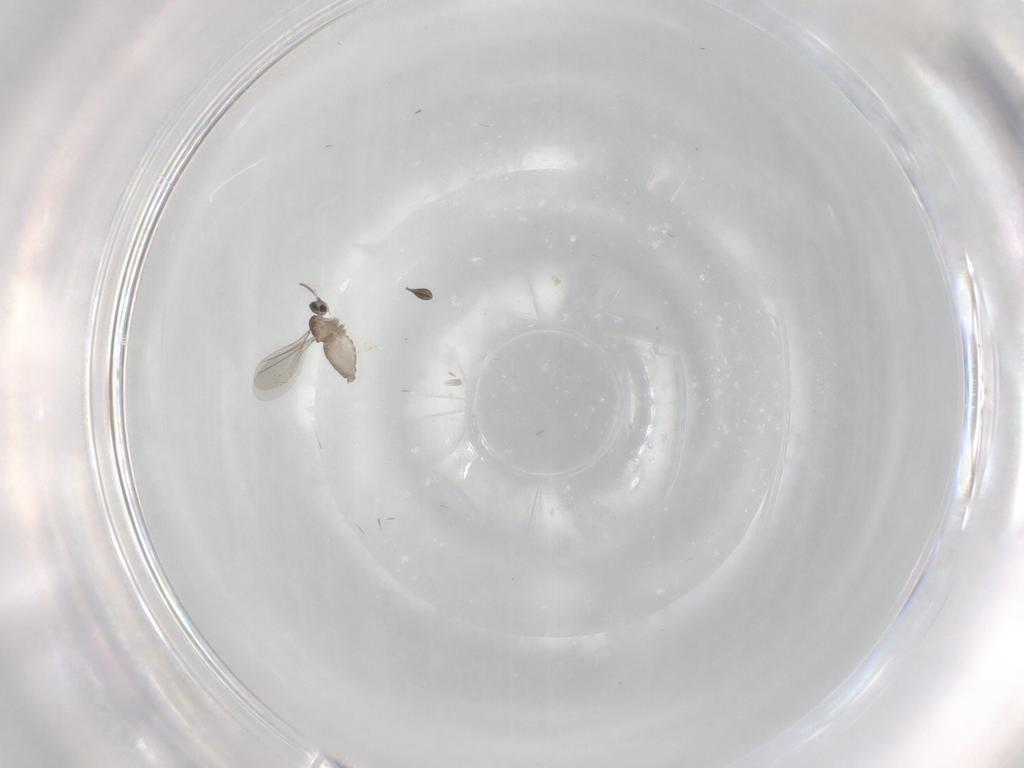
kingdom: Animalia
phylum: Arthropoda
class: Insecta
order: Diptera
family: Cecidomyiidae
